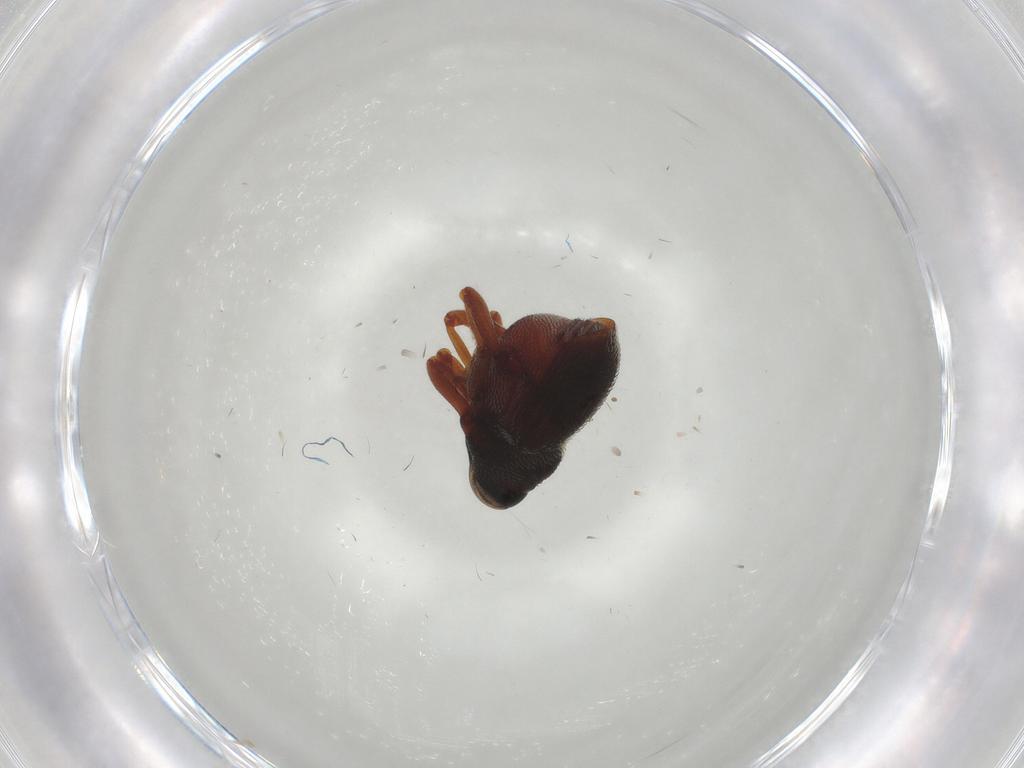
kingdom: Animalia
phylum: Arthropoda
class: Insecta
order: Coleoptera
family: Curculionidae
